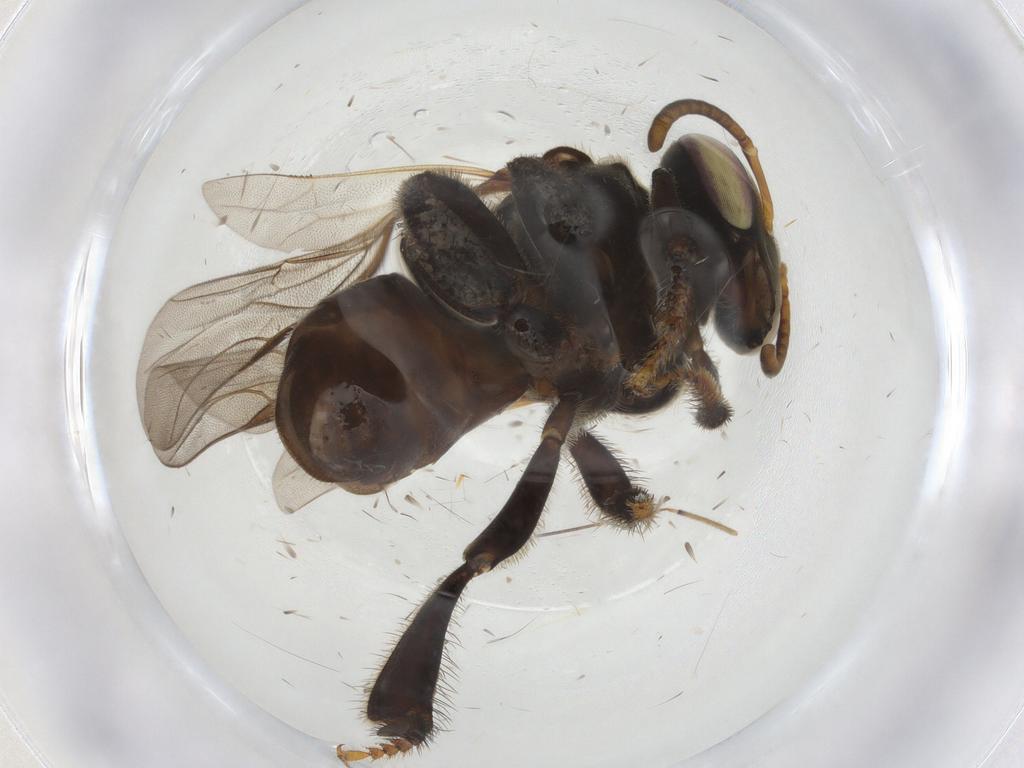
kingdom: Animalia
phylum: Arthropoda
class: Insecta
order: Hymenoptera
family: Apidae
